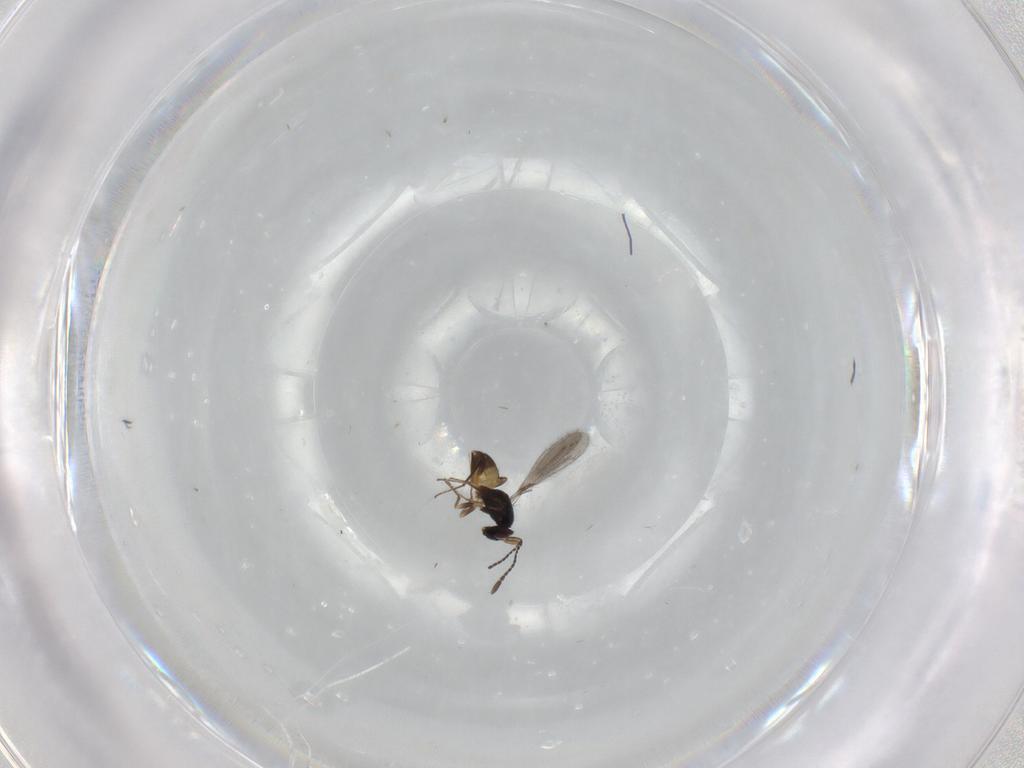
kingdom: Animalia
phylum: Arthropoda
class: Insecta
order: Hymenoptera
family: Mymaridae
